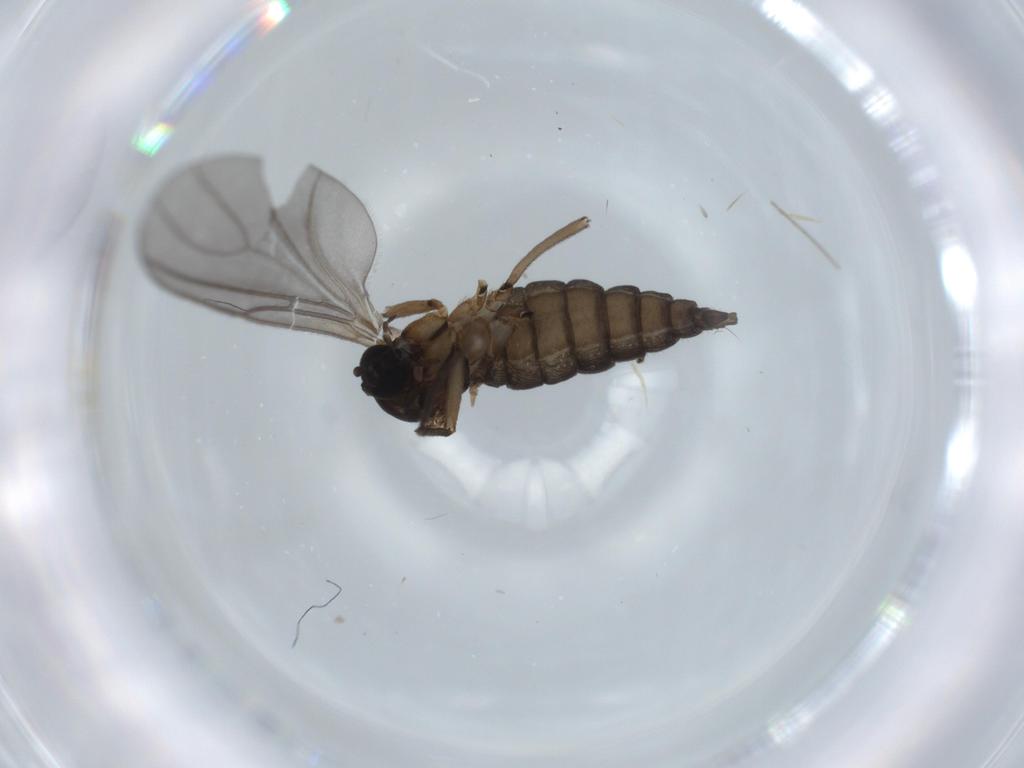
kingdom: Animalia
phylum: Arthropoda
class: Insecta
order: Diptera
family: Sciaridae
